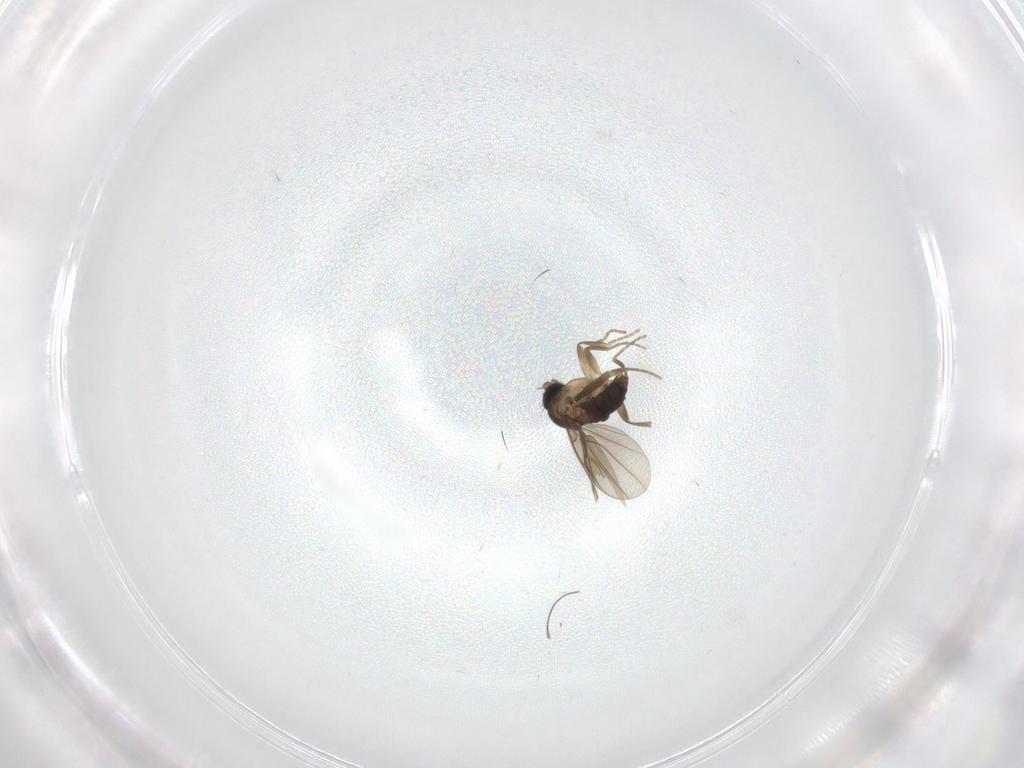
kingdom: Animalia
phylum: Arthropoda
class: Insecta
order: Diptera
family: Phoridae
